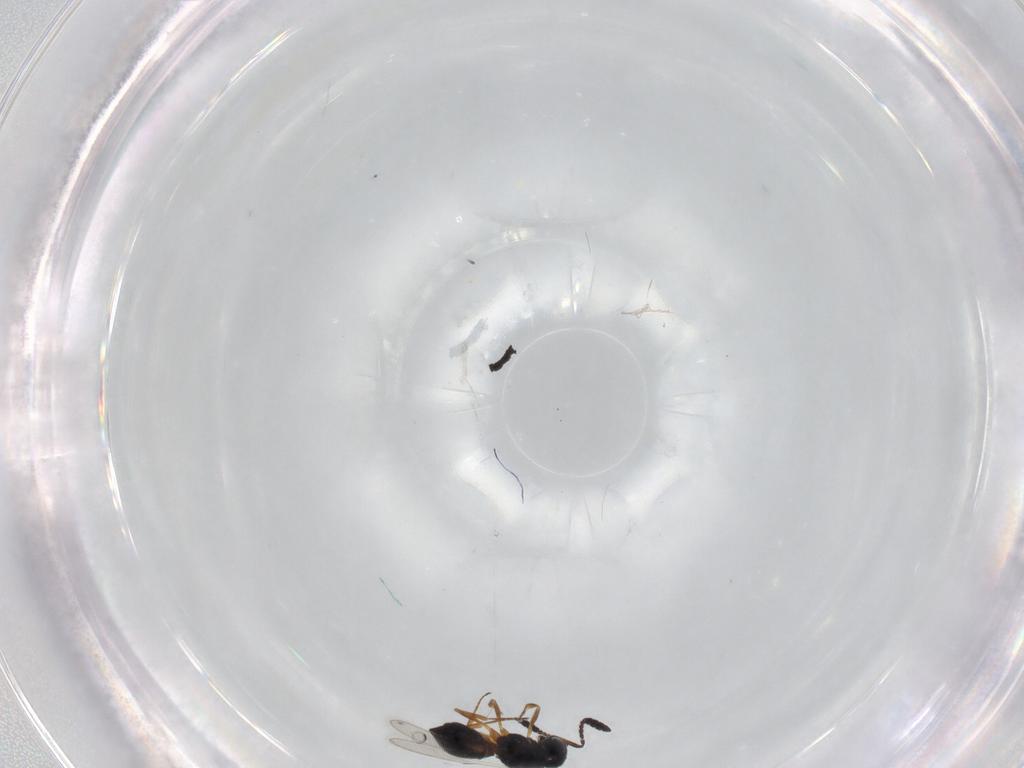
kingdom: Animalia
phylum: Arthropoda
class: Insecta
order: Hymenoptera
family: Scelionidae
